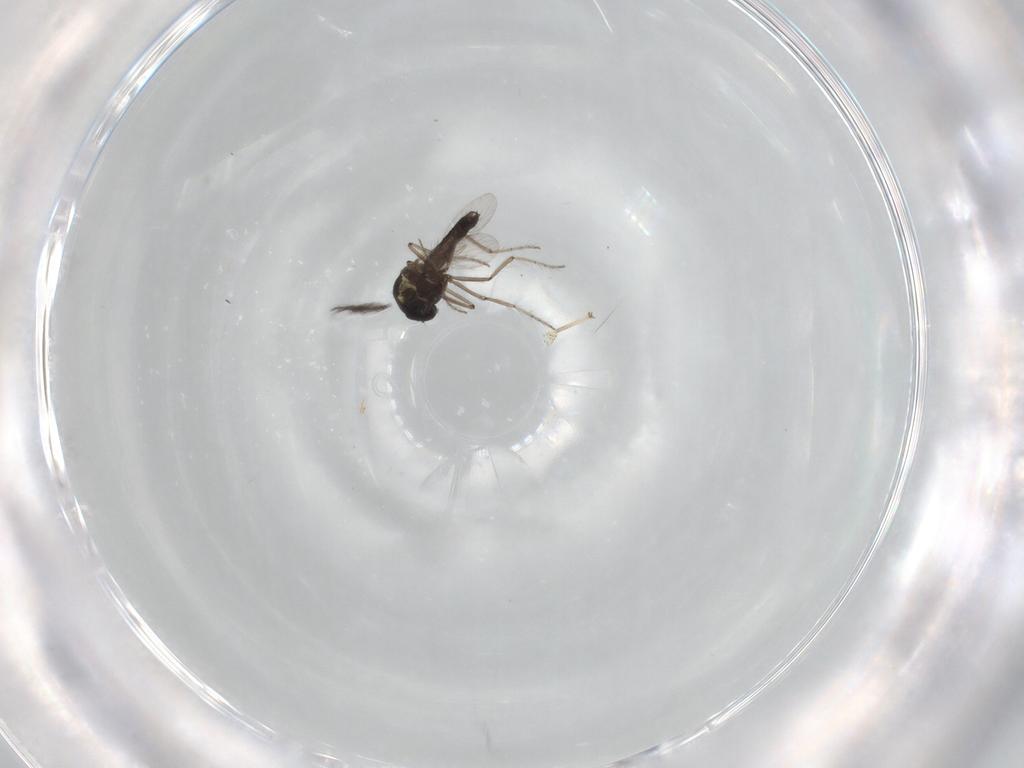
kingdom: Animalia
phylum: Arthropoda
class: Insecta
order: Diptera
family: Ceratopogonidae
